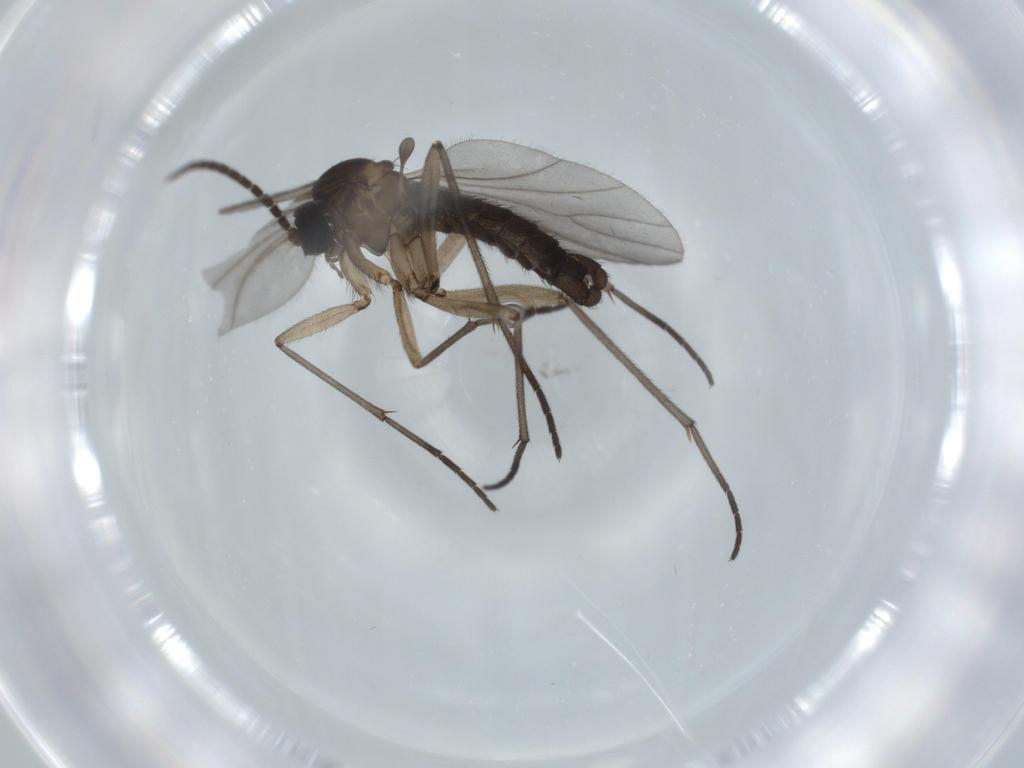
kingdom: Animalia
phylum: Arthropoda
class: Insecta
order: Diptera
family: Sciaridae
